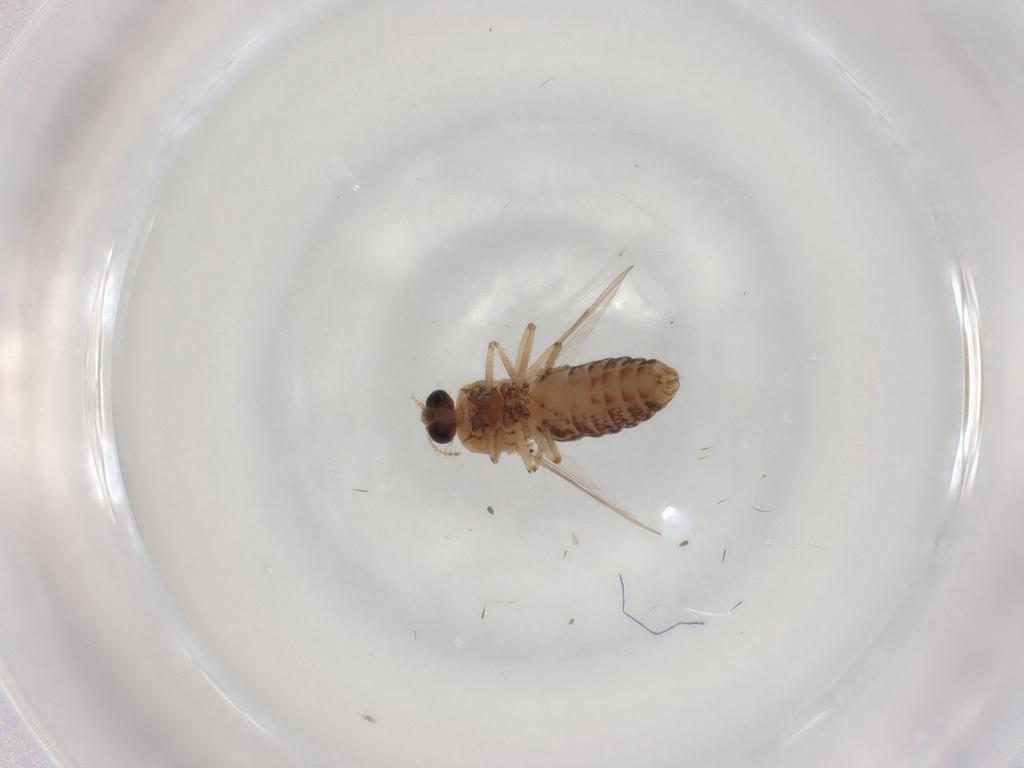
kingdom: Animalia
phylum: Arthropoda
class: Insecta
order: Diptera
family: Ceratopogonidae
